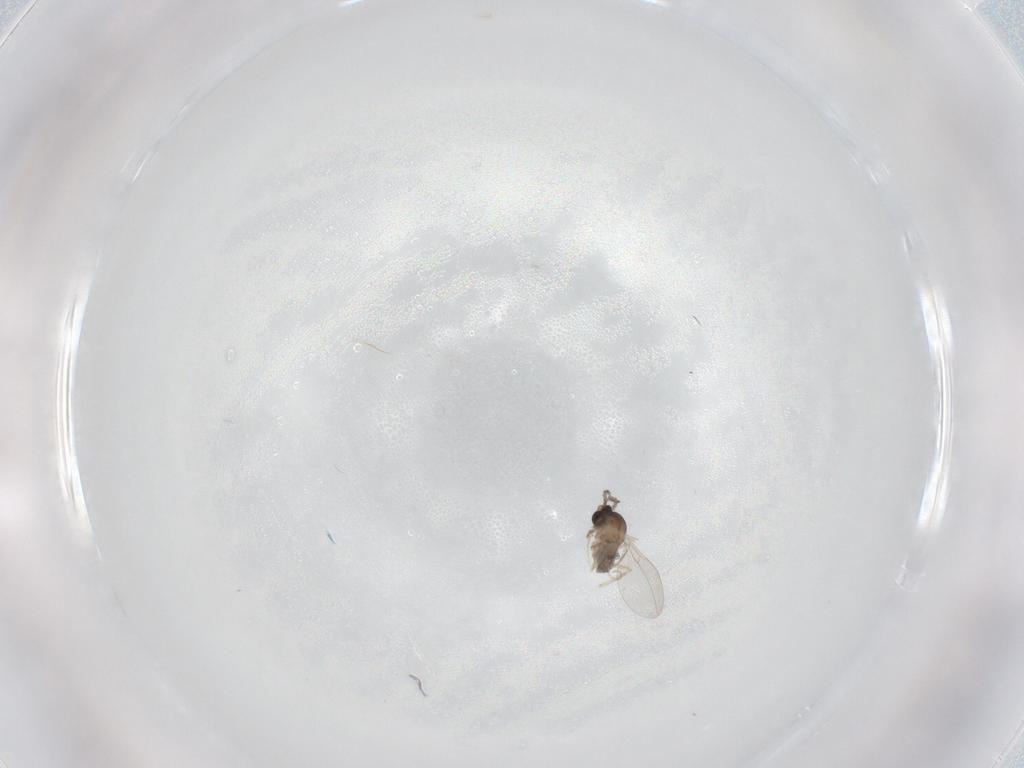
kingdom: Animalia
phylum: Arthropoda
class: Insecta
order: Diptera
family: Cecidomyiidae
